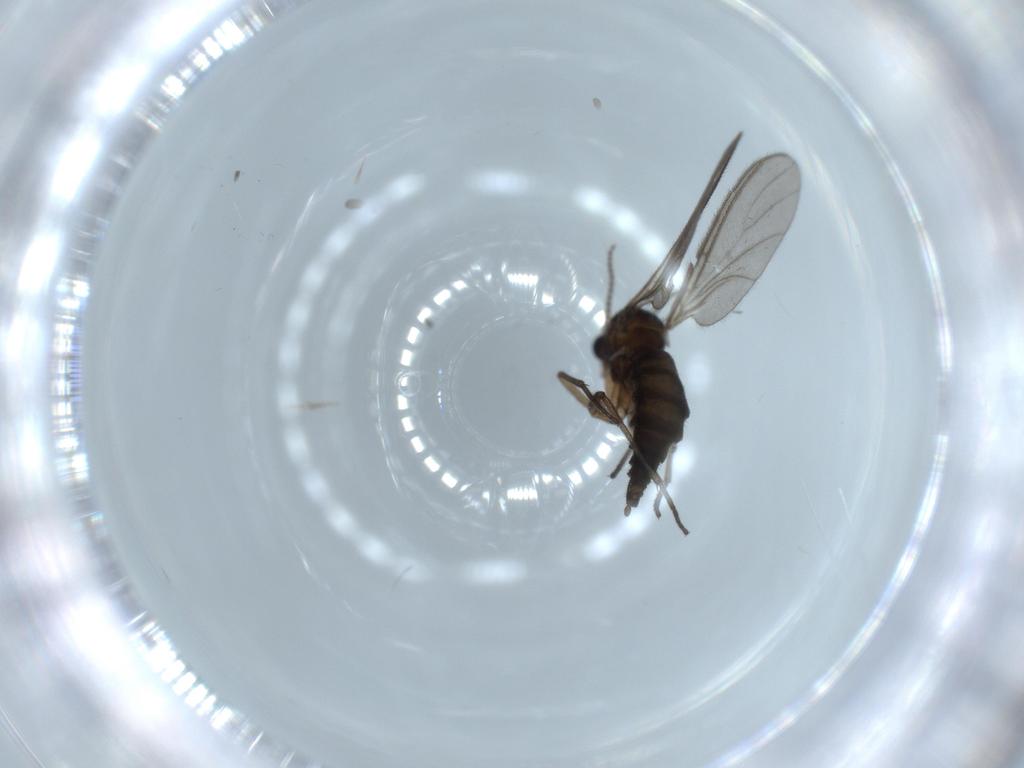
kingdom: Animalia
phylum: Arthropoda
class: Insecta
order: Diptera
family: Sciaridae
